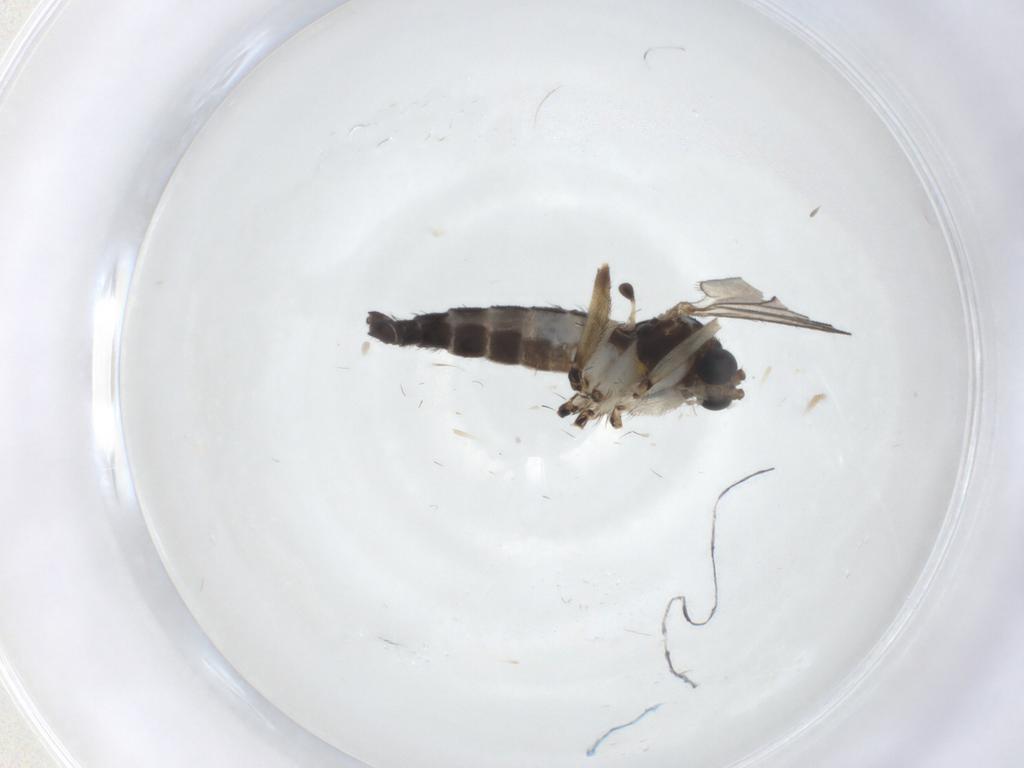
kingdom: Animalia
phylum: Arthropoda
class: Insecta
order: Diptera
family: Sciaridae
